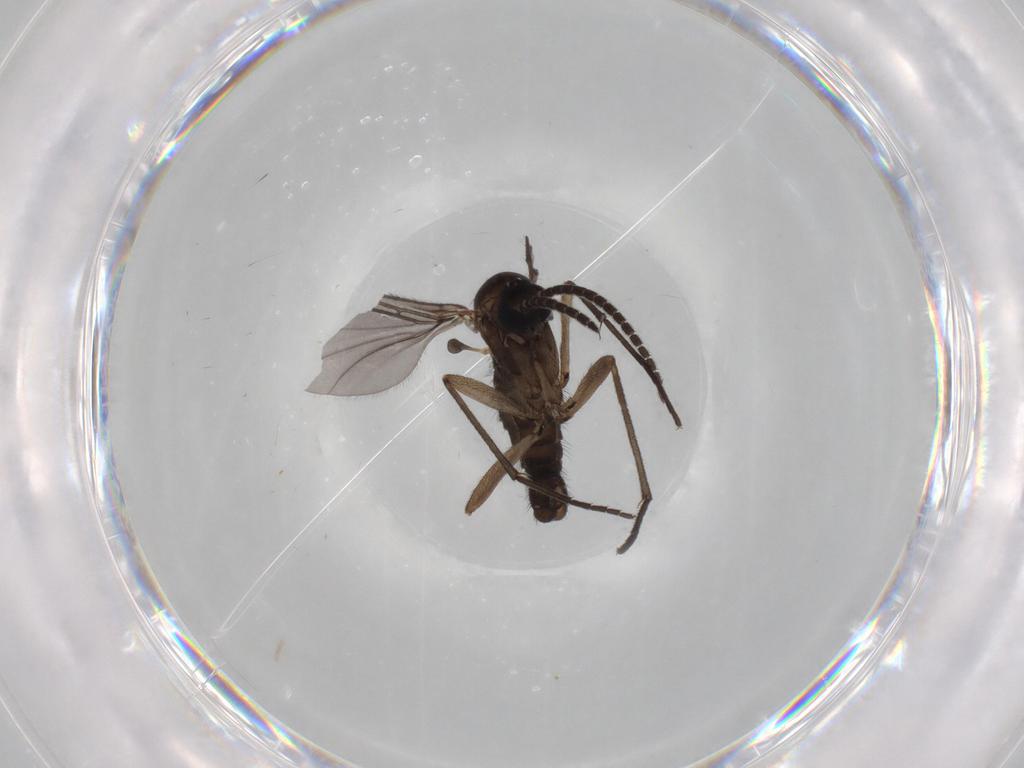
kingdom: Animalia
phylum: Arthropoda
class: Insecta
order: Diptera
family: Sciaridae
